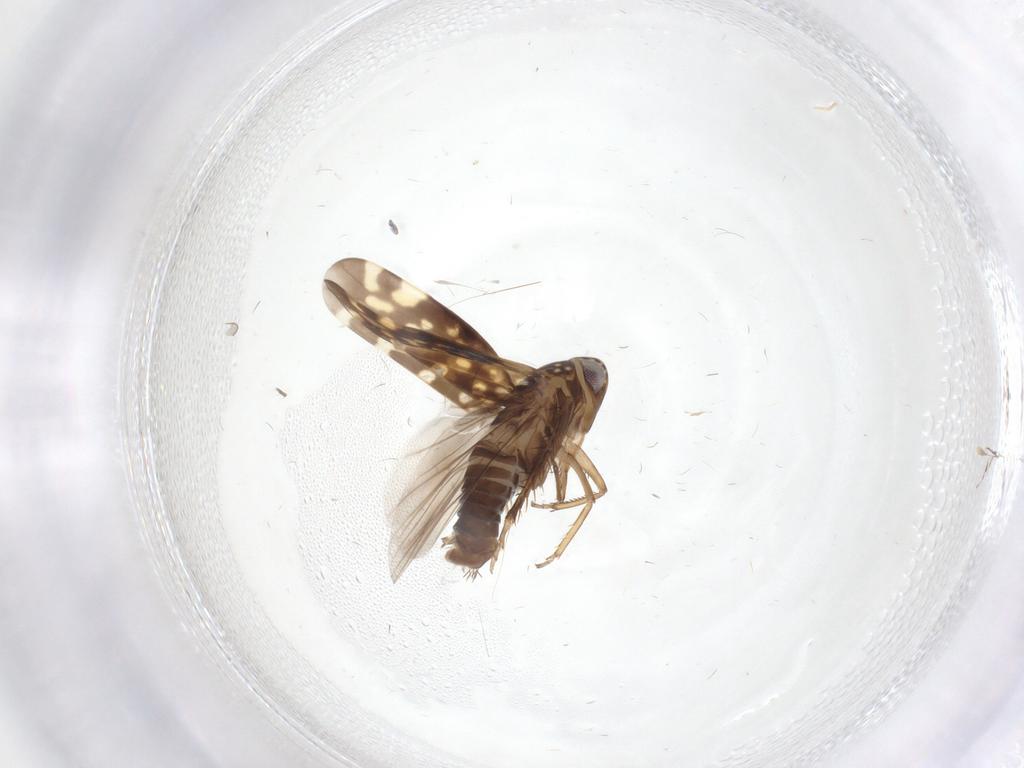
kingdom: Animalia
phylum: Arthropoda
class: Insecta
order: Hemiptera
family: Cicadellidae
